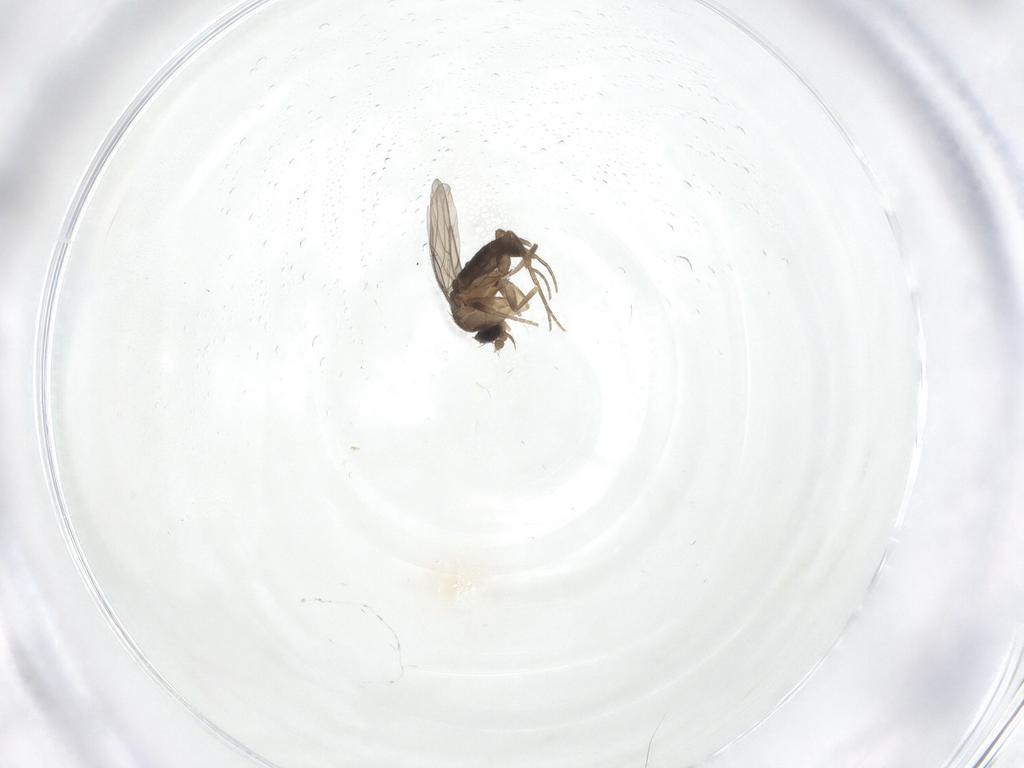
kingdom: Animalia
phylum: Arthropoda
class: Insecta
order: Diptera
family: Phoridae
